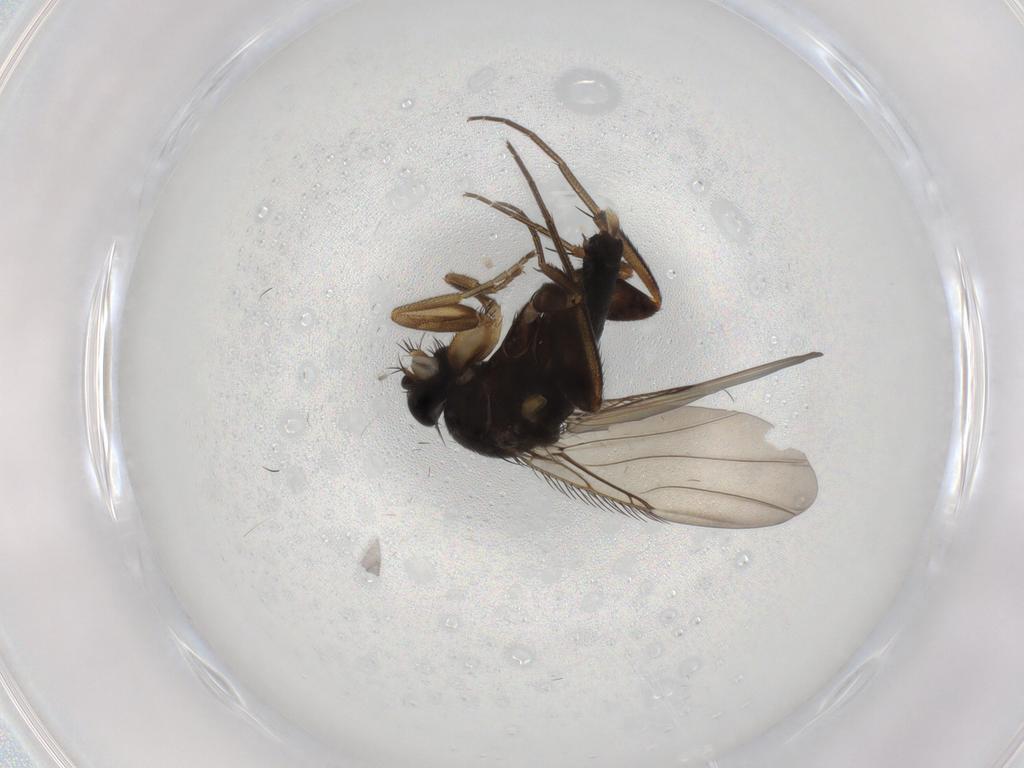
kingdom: Animalia
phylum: Arthropoda
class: Insecta
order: Diptera
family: Phoridae
